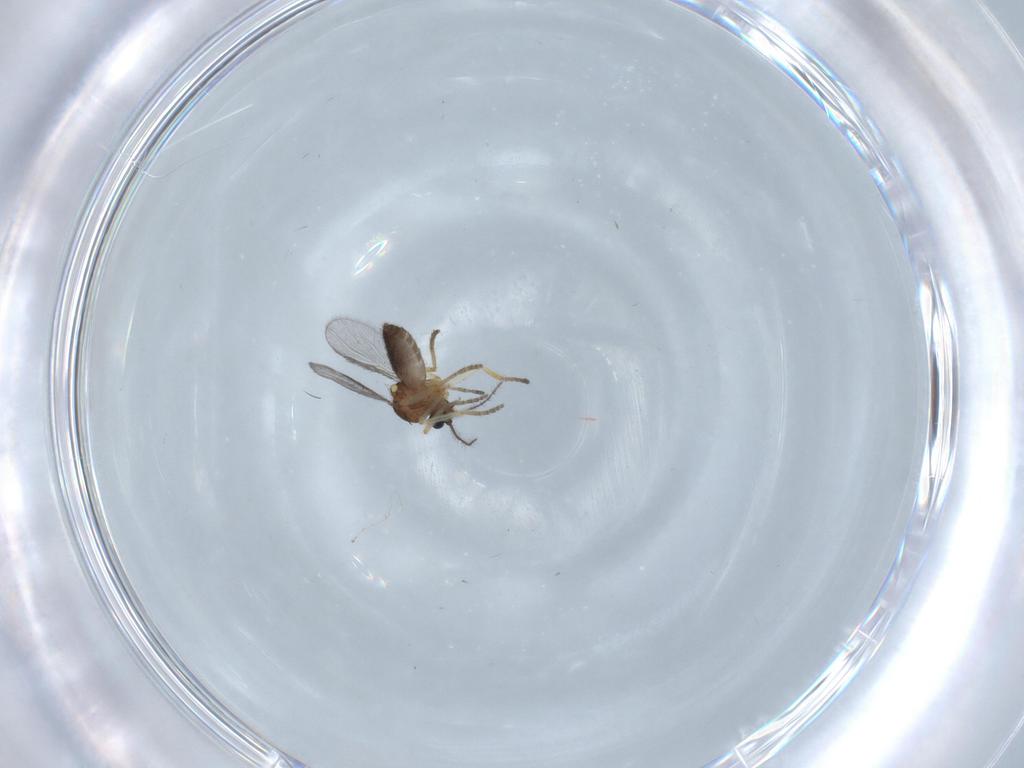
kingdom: Animalia
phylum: Arthropoda
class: Insecta
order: Diptera
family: Ceratopogonidae
